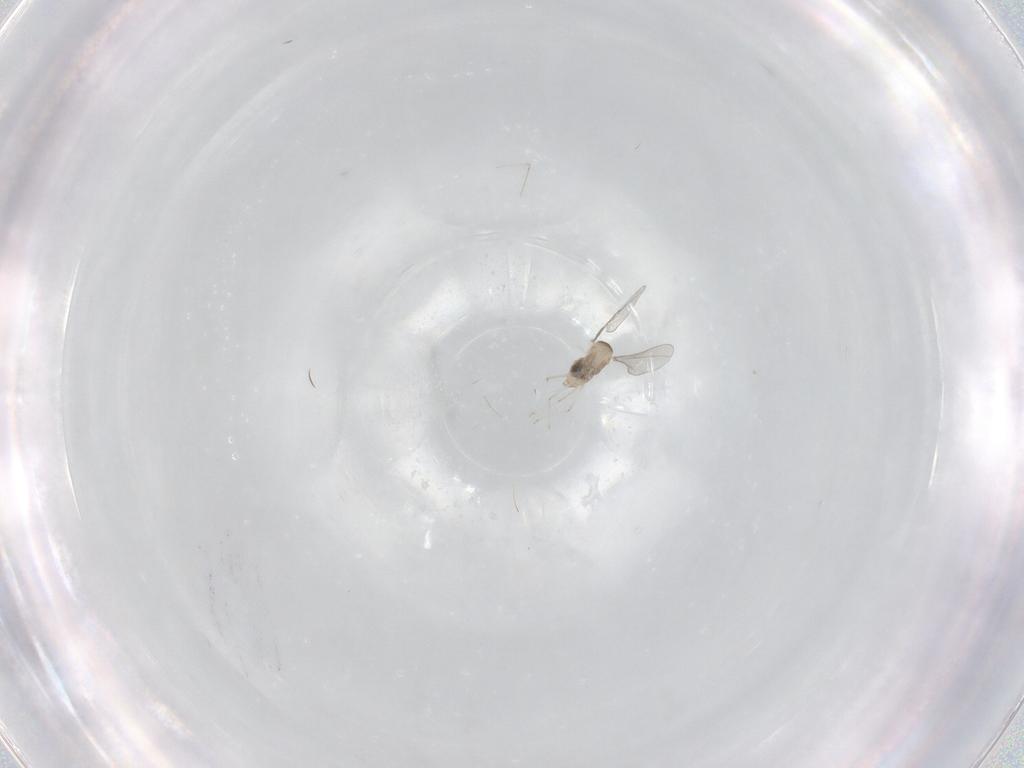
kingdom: Animalia
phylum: Arthropoda
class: Insecta
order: Diptera
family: Cecidomyiidae
